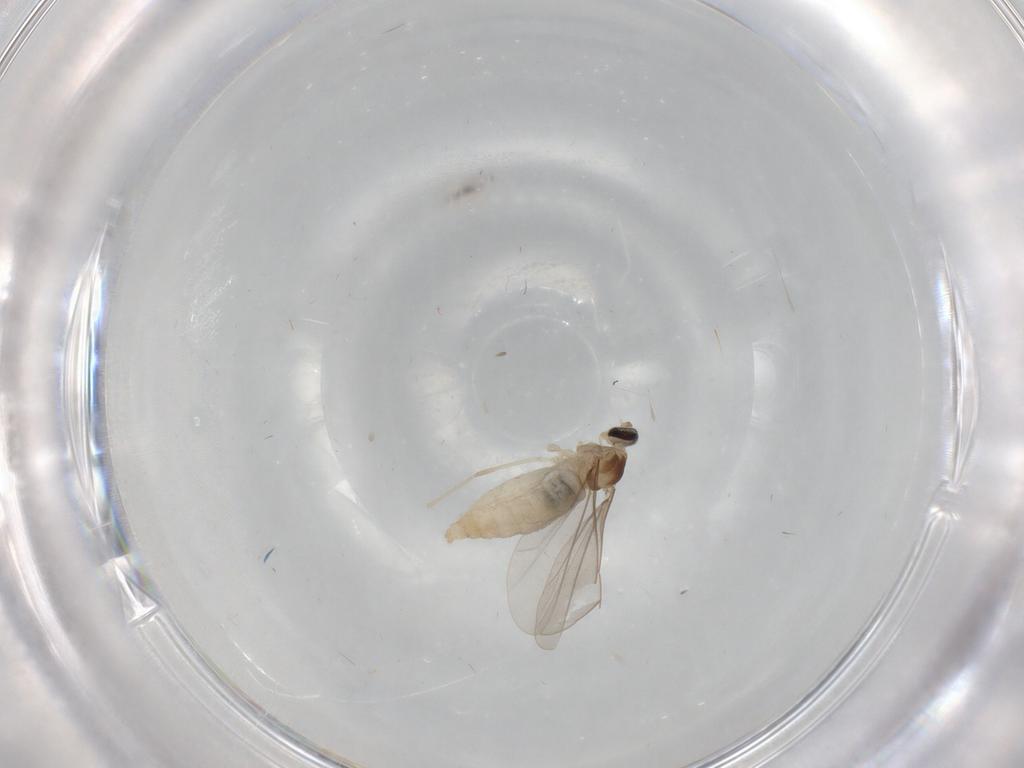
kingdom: Animalia
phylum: Arthropoda
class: Insecta
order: Diptera
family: Cecidomyiidae
